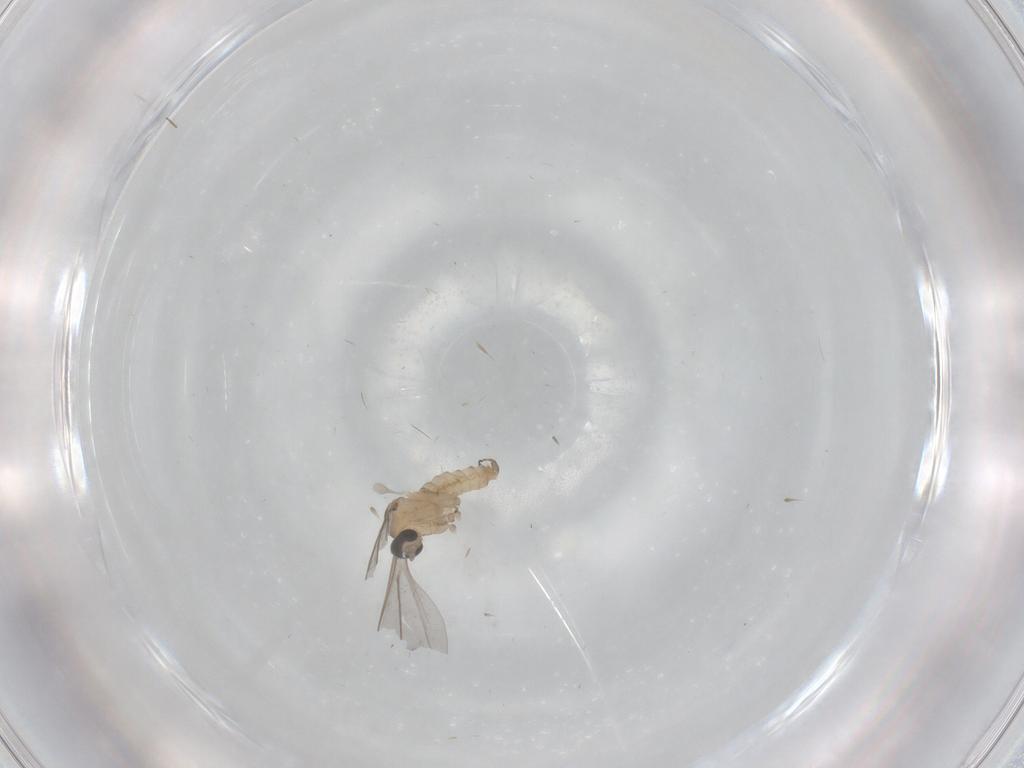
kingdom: Animalia
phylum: Arthropoda
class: Insecta
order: Diptera
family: Cecidomyiidae
